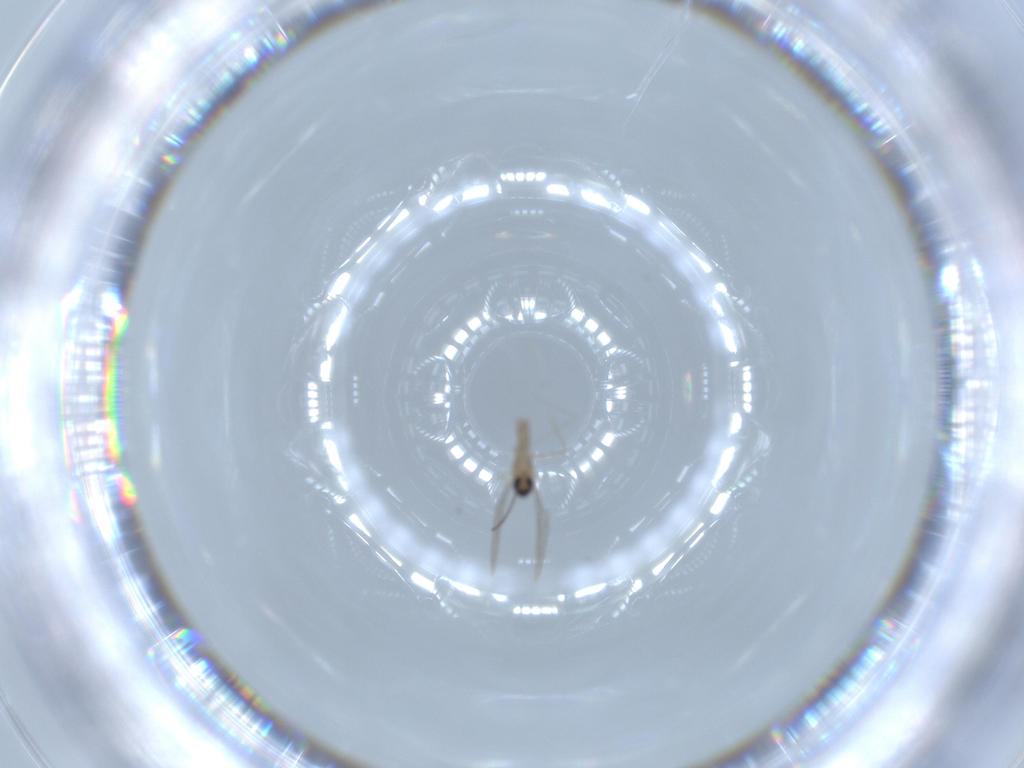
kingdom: Animalia
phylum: Arthropoda
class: Insecta
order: Diptera
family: Cecidomyiidae
